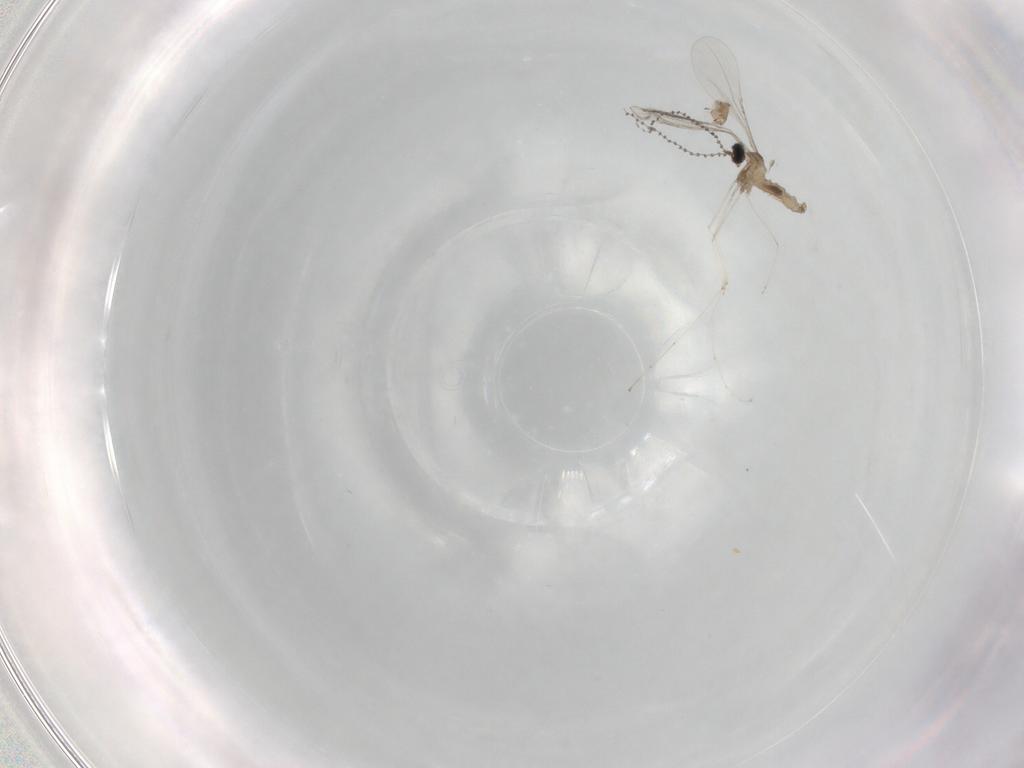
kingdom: Animalia
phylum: Arthropoda
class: Insecta
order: Diptera
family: Cecidomyiidae
